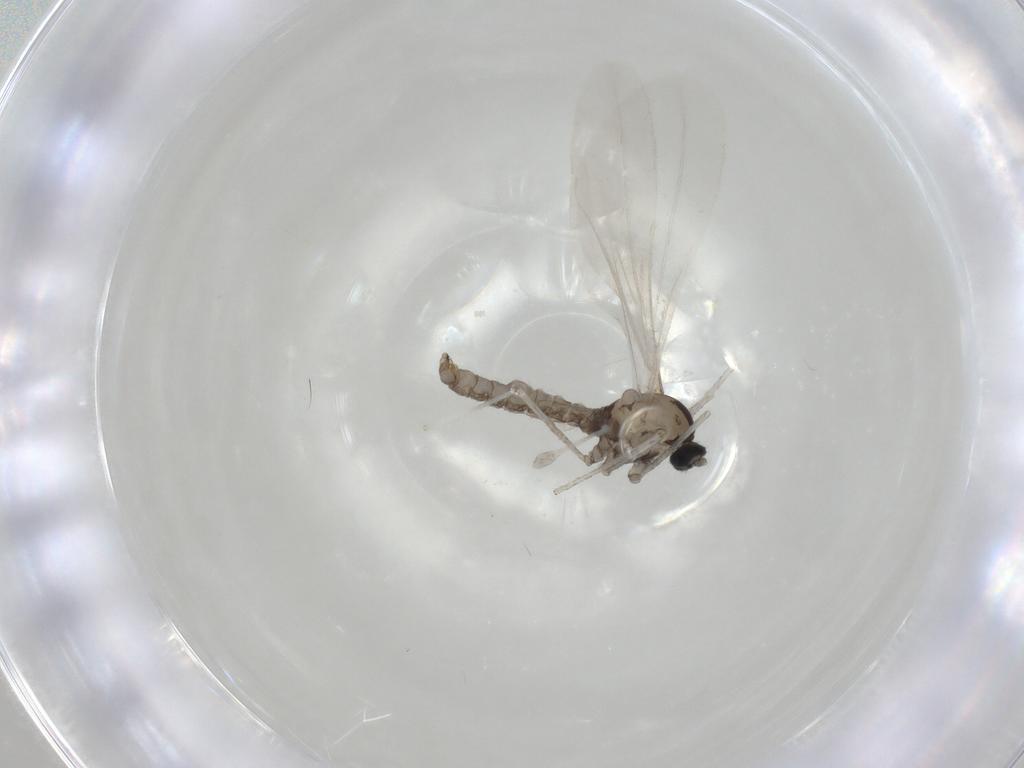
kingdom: Animalia
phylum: Arthropoda
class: Insecta
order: Diptera
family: Cecidomyiidae
